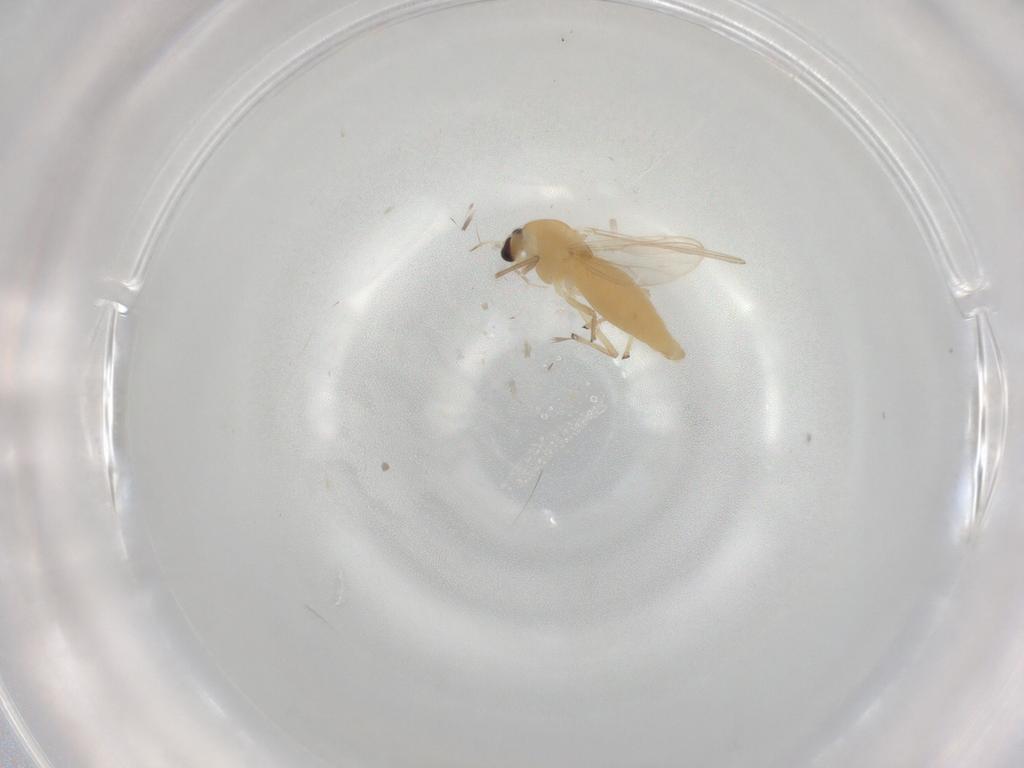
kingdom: Animalia
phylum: Arthropoda
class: Insecta
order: Diptera
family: Chironomidae
